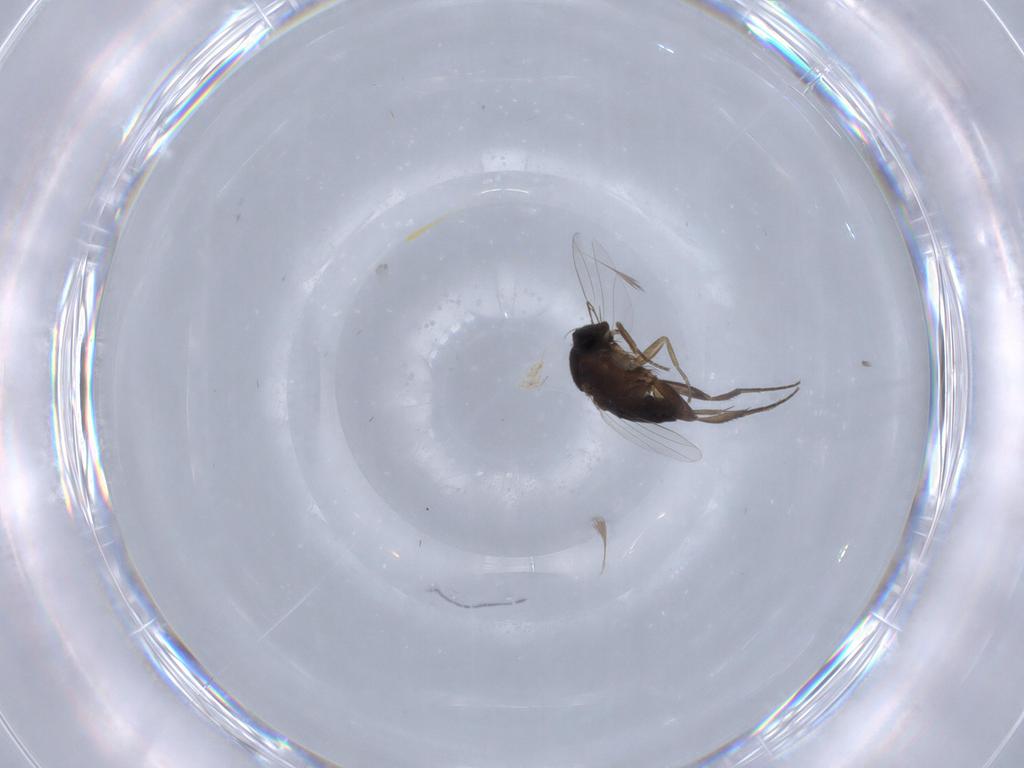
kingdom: Animalia
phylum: Arthropoda
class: Insecta
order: Diptera
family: Phoridae
